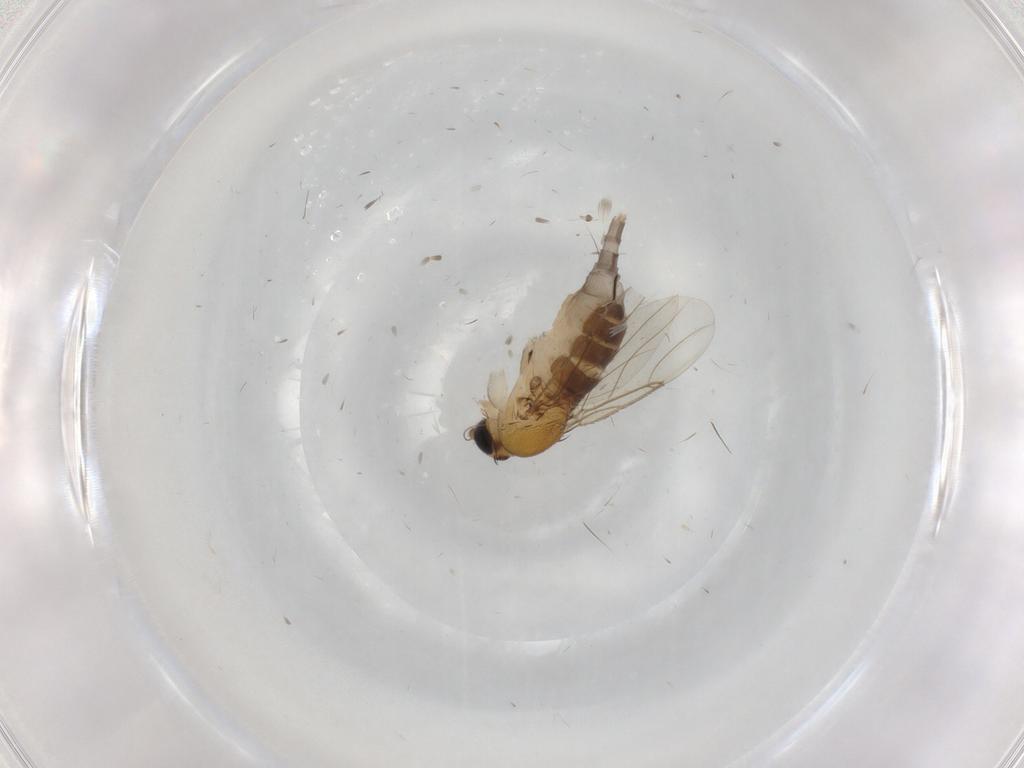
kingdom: Animalia
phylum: Arthropoda
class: Insecta
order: Diptera
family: Phoridae
